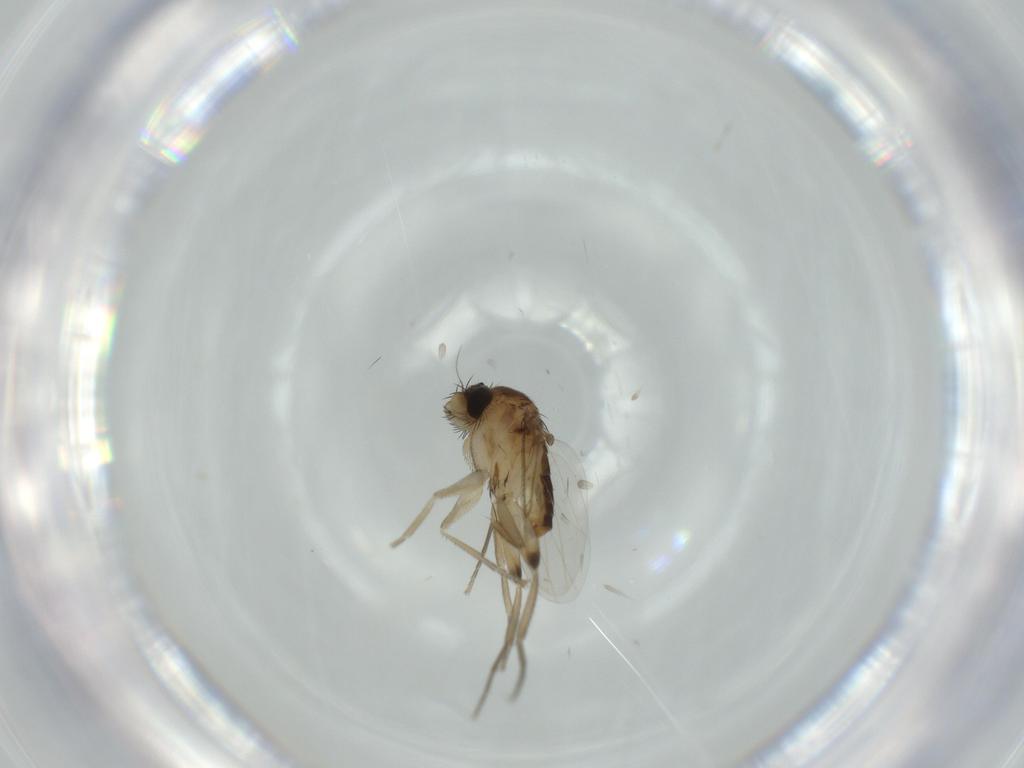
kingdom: Animalia
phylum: Arthropoda
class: Insecta
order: Diptera
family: Phoridae
